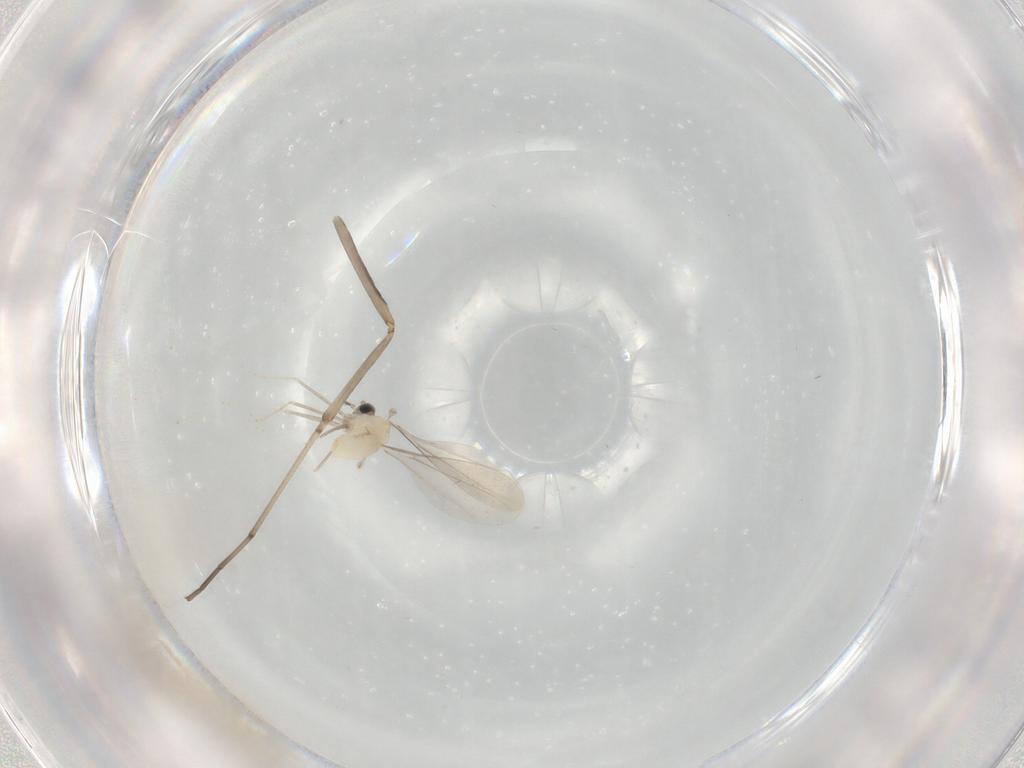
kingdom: Animalia
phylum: Arthropoda
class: Insecta
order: Diptera
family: Cecidomyiidae
